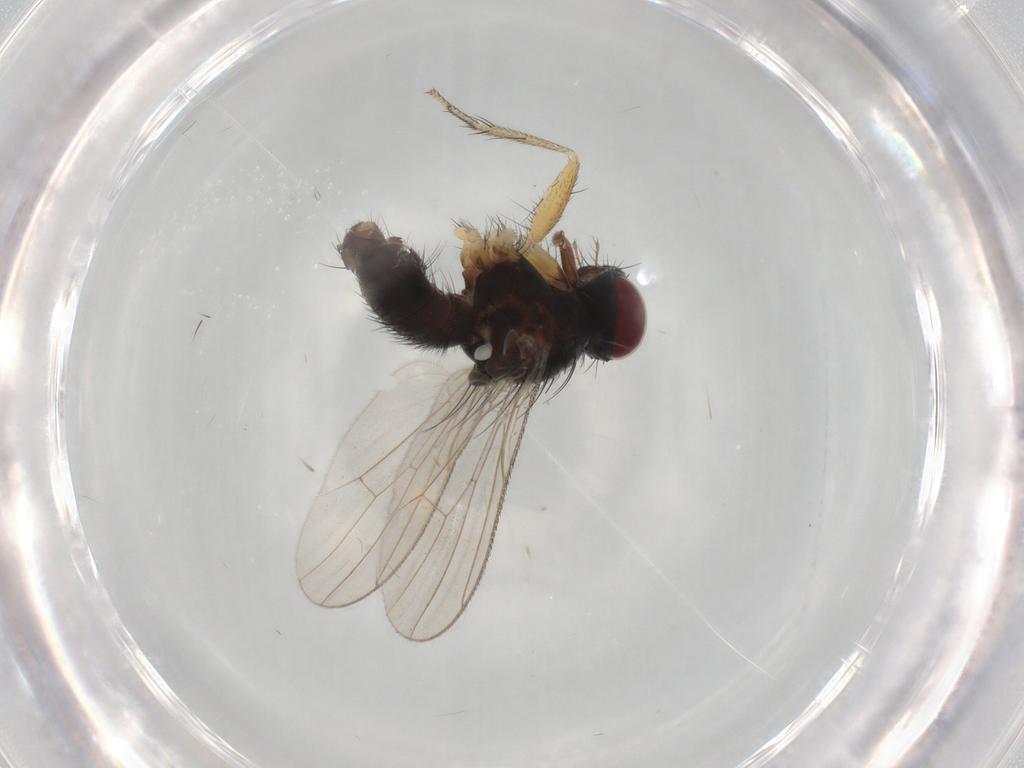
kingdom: Animalia
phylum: Arthropoda
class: Insecta
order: Diptera
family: Muscidae
